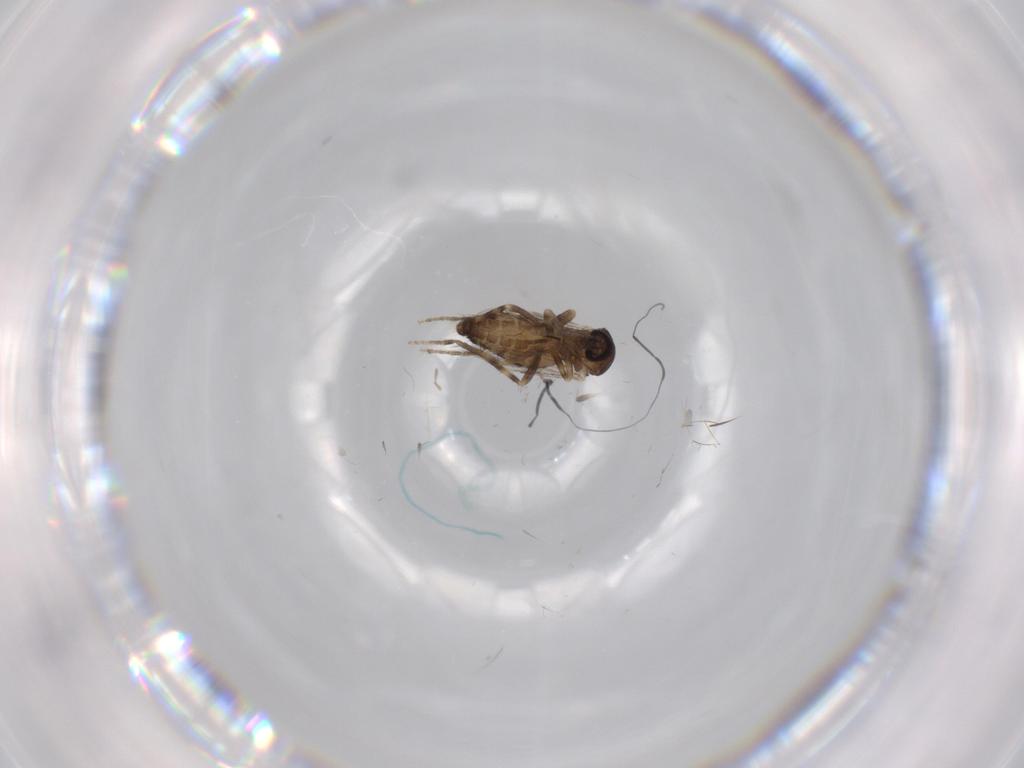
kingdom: Animalia
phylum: Arthropoda
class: Insecta
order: Diptera
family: Ceratopogonidae
